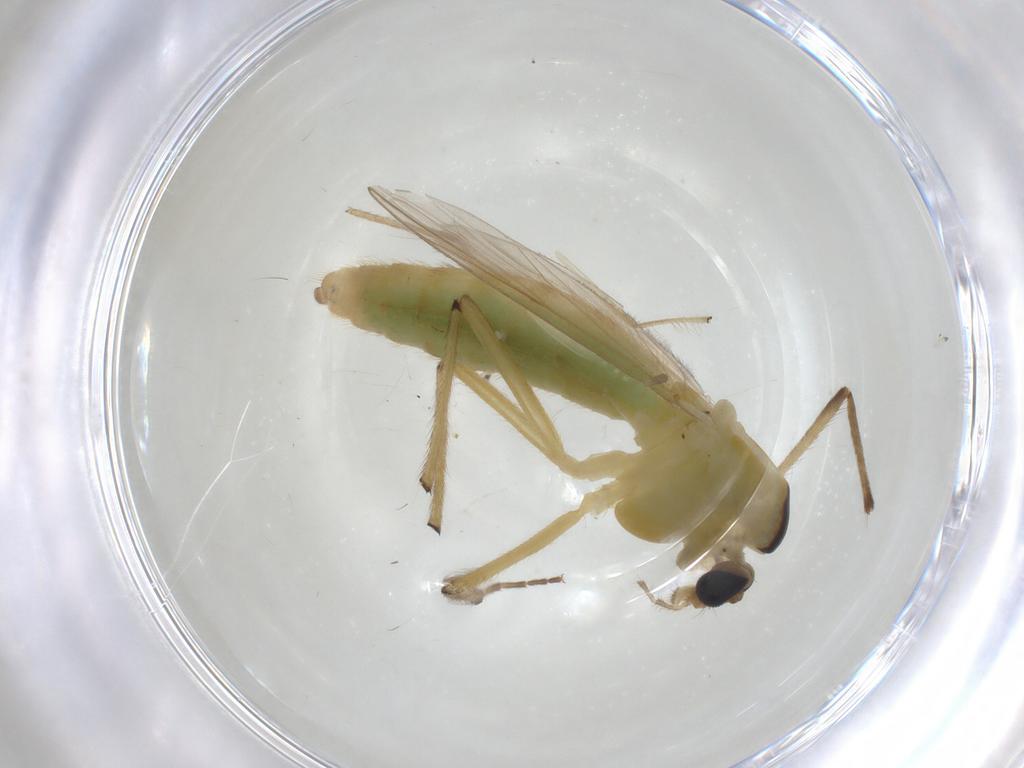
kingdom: Animalia
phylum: Arthropoda
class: Insecta
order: Diptera
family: Chironomidae
